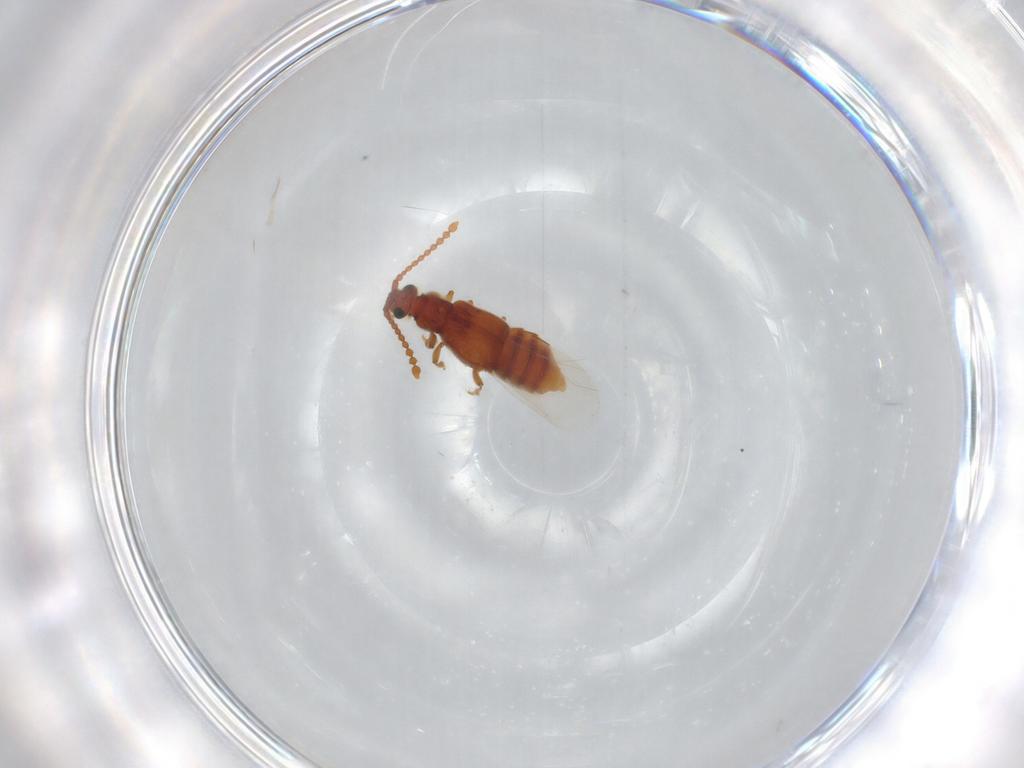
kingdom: Animalia
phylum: Arthropoda
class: Insecta
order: Coleoptera
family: Staphylinidae
